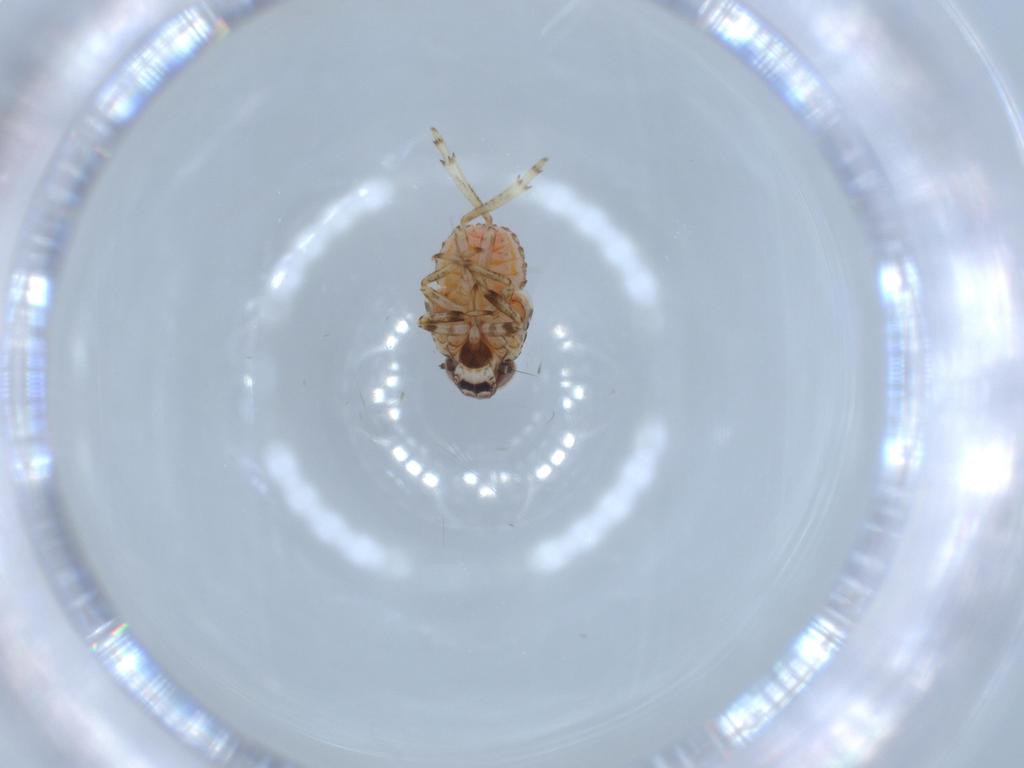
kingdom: Animalia
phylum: Arthropoda
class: Insecta
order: Hemiptera
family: Issidae
